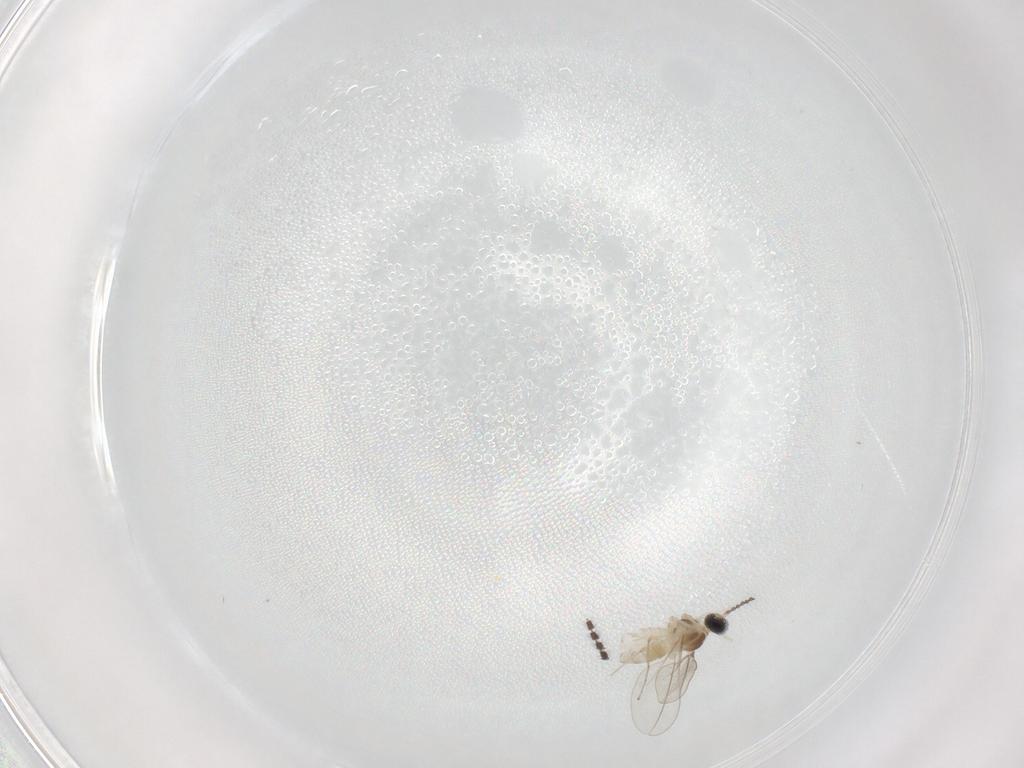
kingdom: Animalia
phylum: Arthropoda
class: Insecta
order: Diptera
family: Cecidomyiidae
